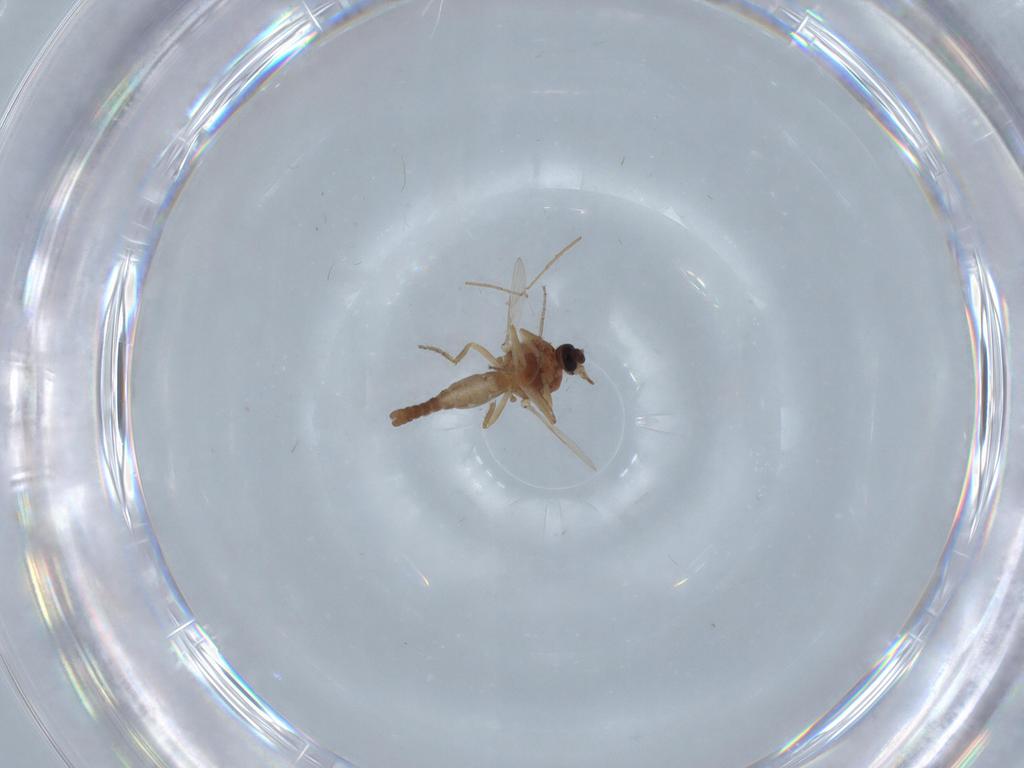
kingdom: Animalia
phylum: Arthropoda
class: Insecta
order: Diptera
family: Ceratopogonidae
